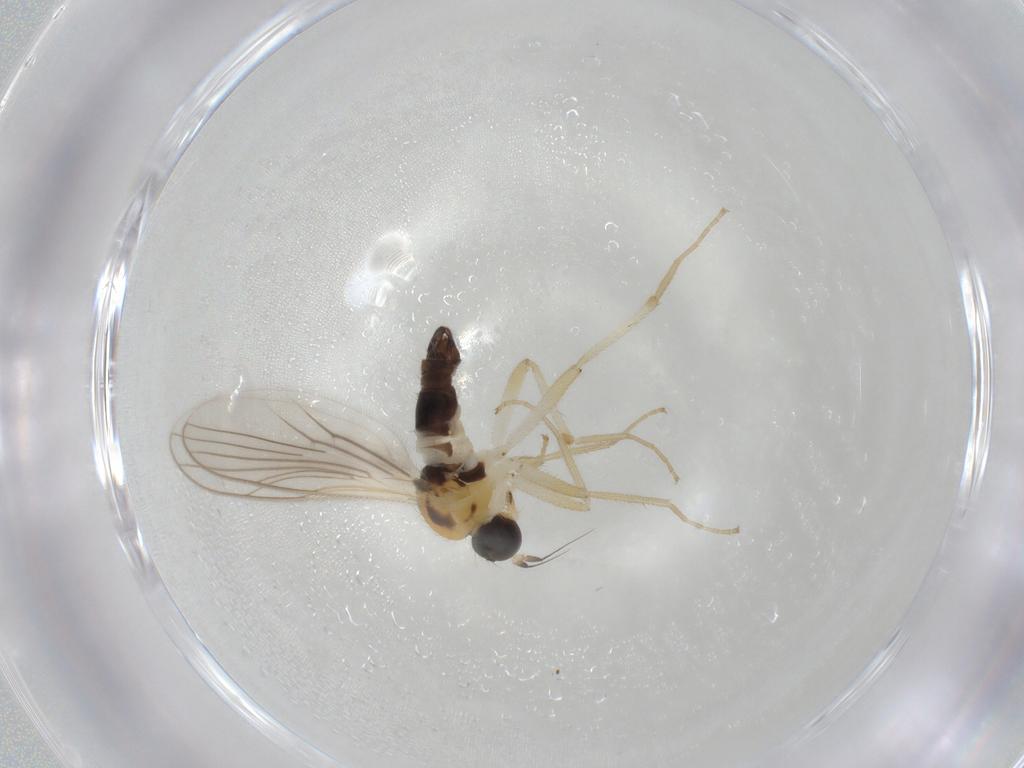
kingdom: Animalia
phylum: Arthropoda
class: Insecta
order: Diptera
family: Hybotidae
